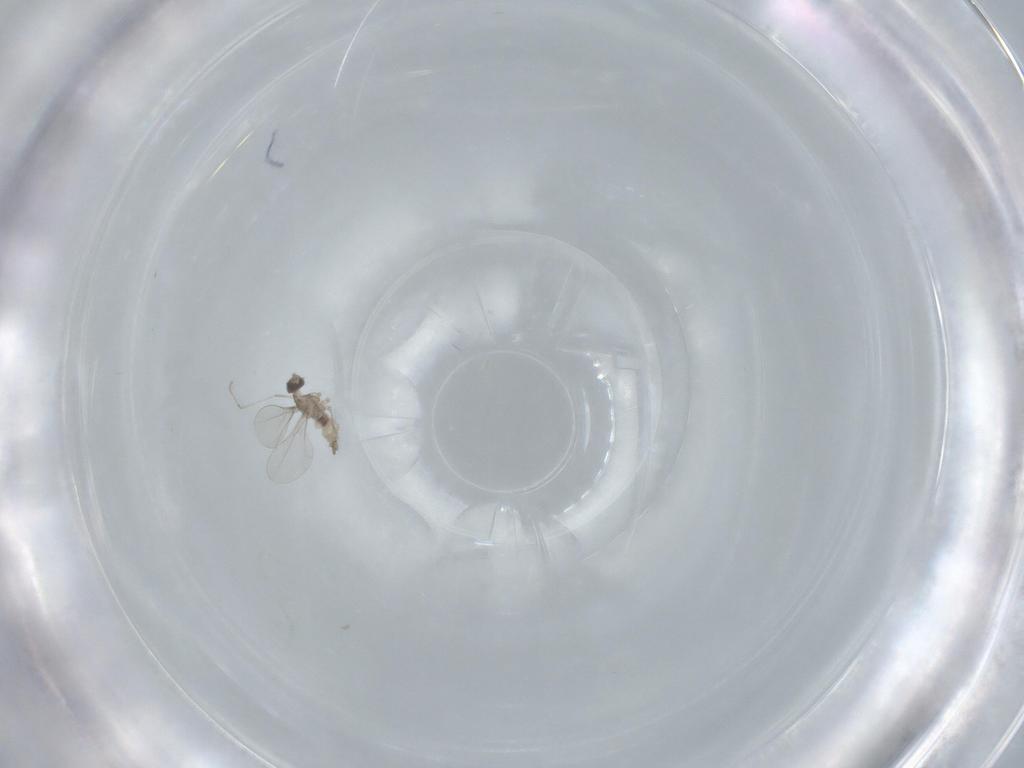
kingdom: Animalia
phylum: Arthropoda
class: Insecta
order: Diptera
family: Cecidomyiidae
